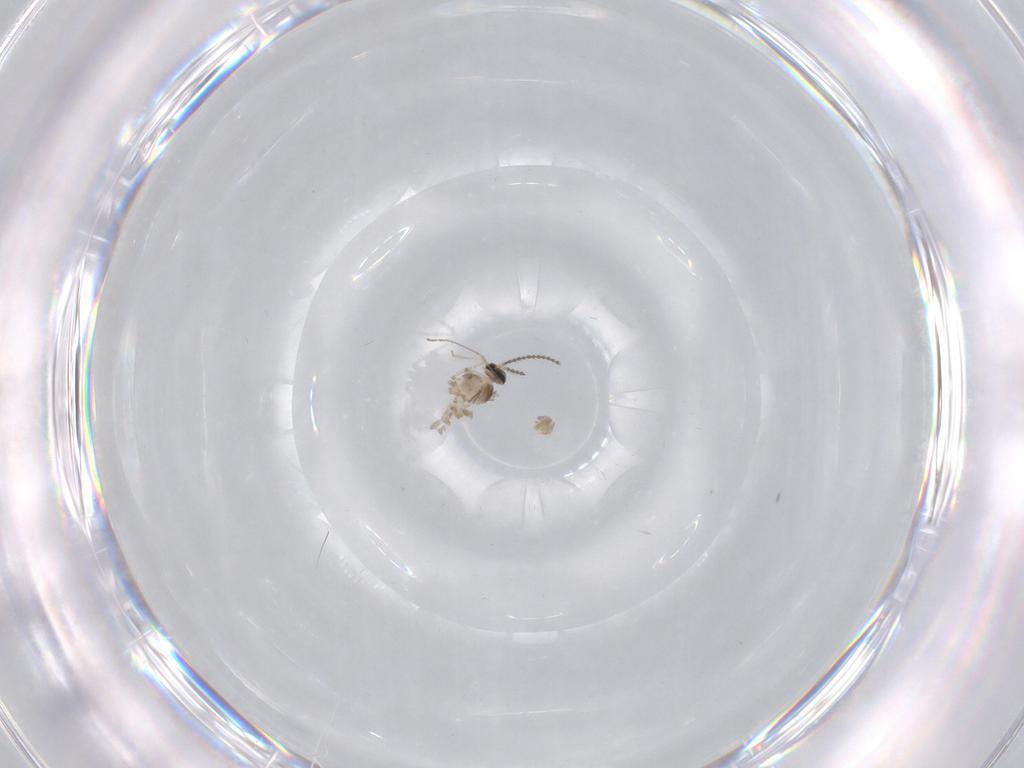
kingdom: Animalia
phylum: Arthropoda
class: Insecta
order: Diptera
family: Cecidomyiidae
